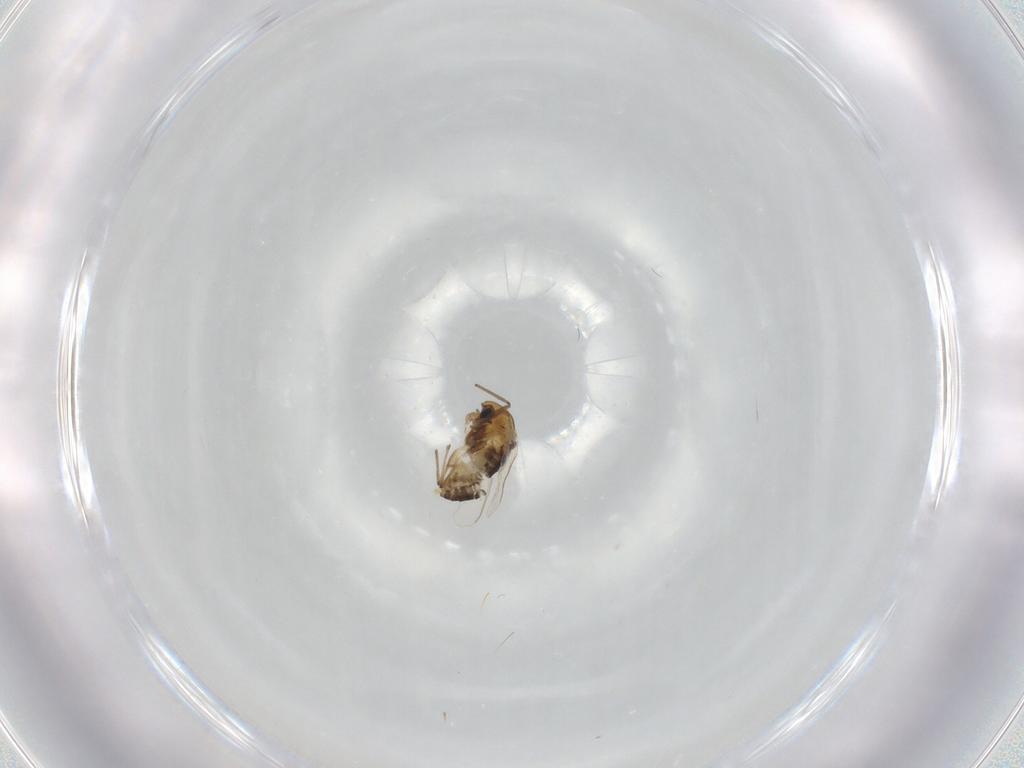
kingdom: Animalia
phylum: Arthropoda
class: Insecta
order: Diptera
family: Chironomidae
